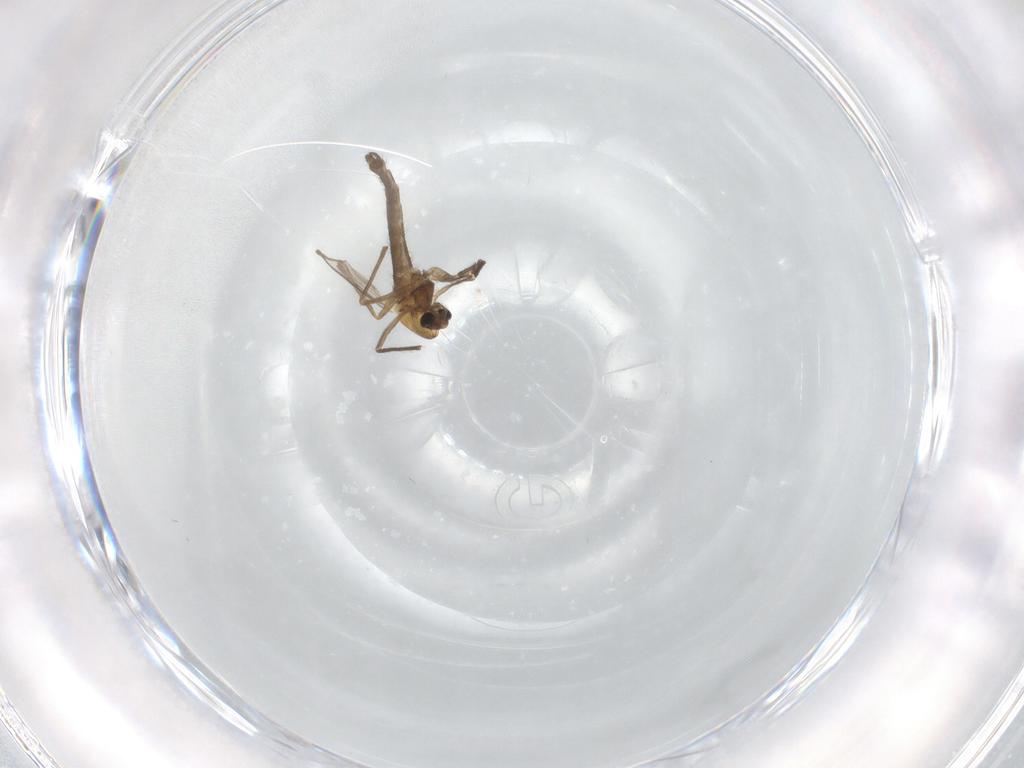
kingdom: Animalia
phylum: Arthropoda
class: Insecta
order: Diptera
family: Chironomidae
